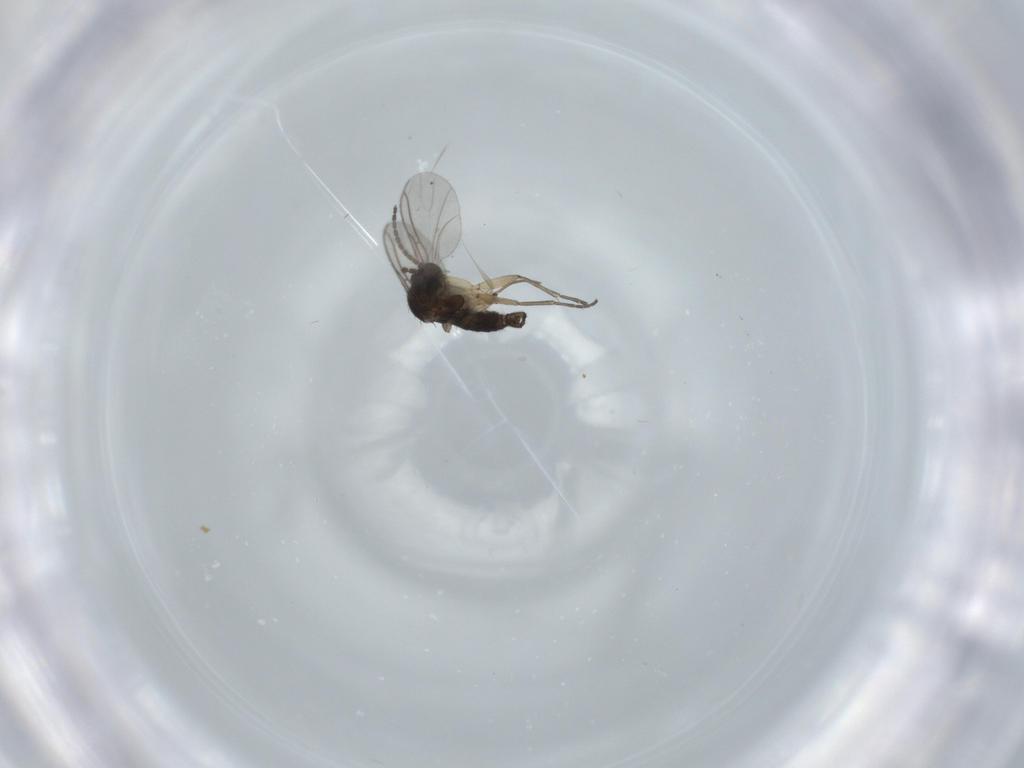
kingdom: Animalia
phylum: Arthropoda
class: Insecta
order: Diptera
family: Sciaridae
